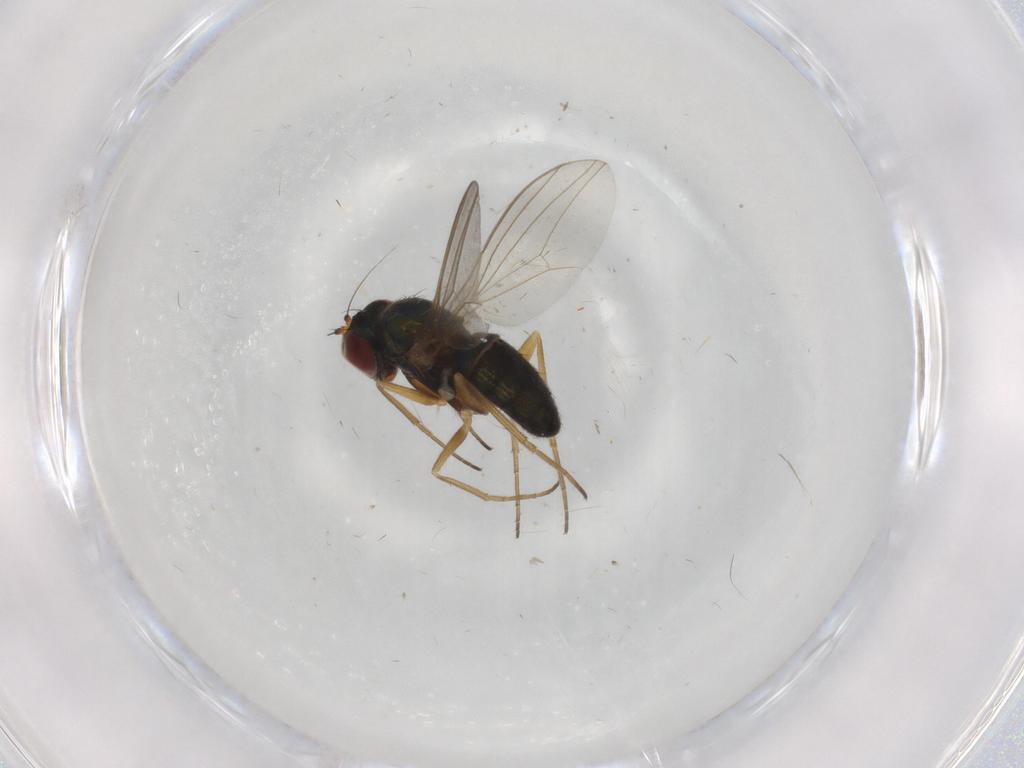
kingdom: Animalia
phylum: Arthropoda
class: Insecta
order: Diptera
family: Dolichopodidae
